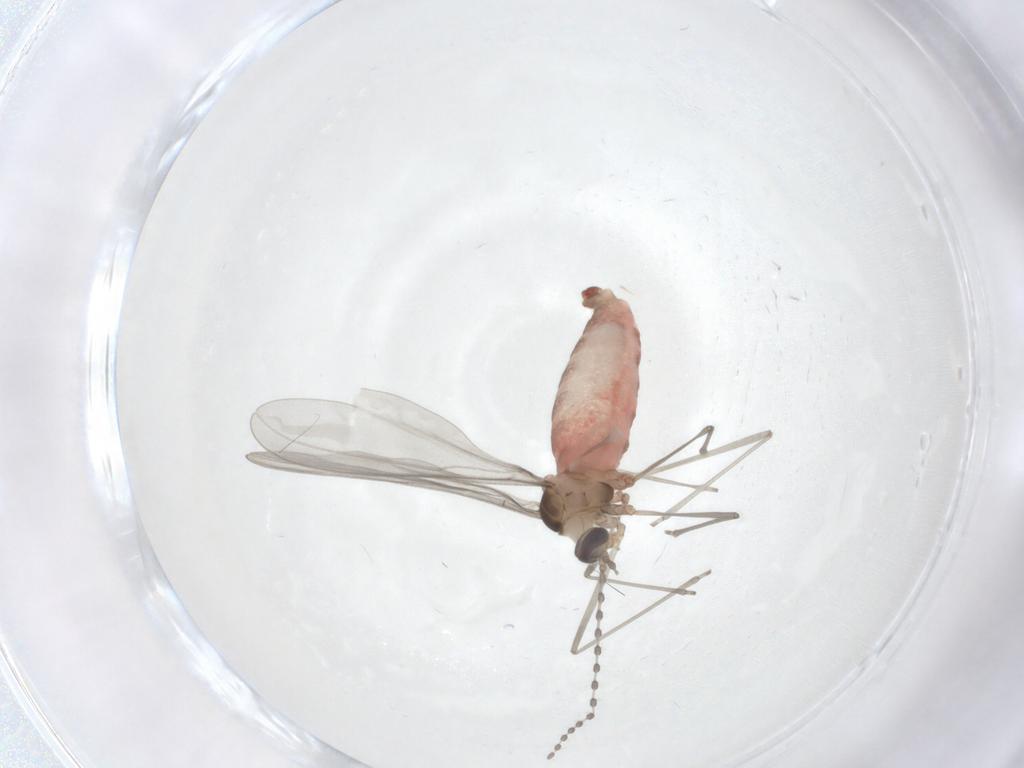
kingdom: Animalia
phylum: Arthropoda
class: Insecta
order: Diptera
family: Cecidomyiidae
